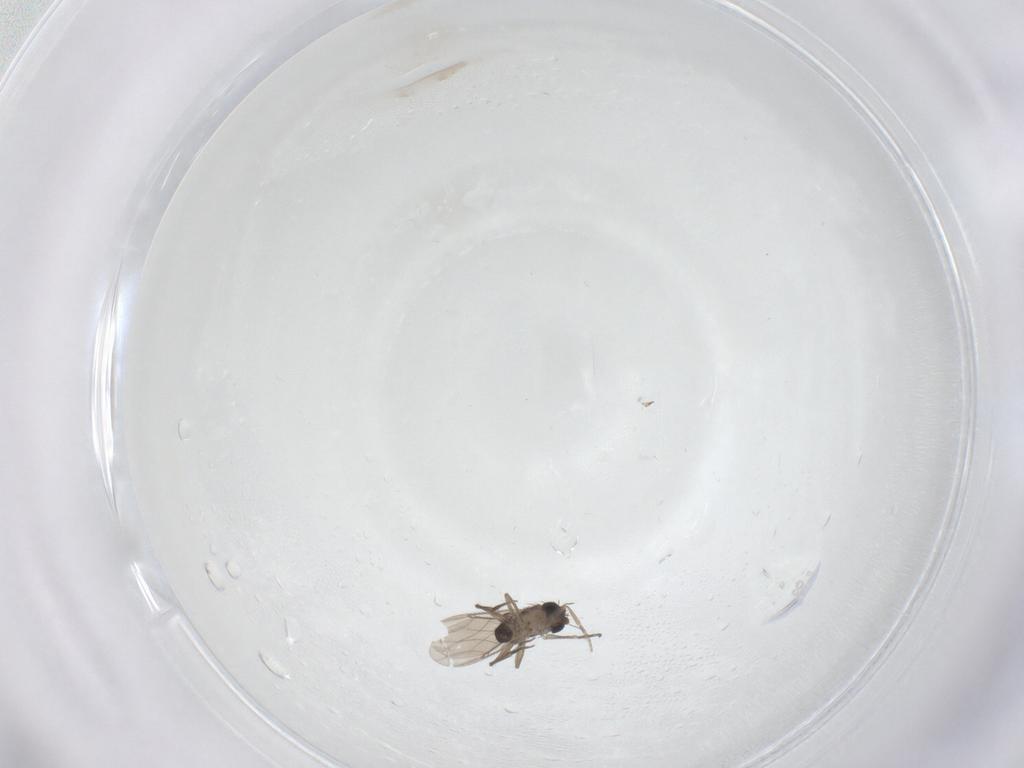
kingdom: Animalia
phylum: Arthropoda
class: Insecta
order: Diptera
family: Phoridae
